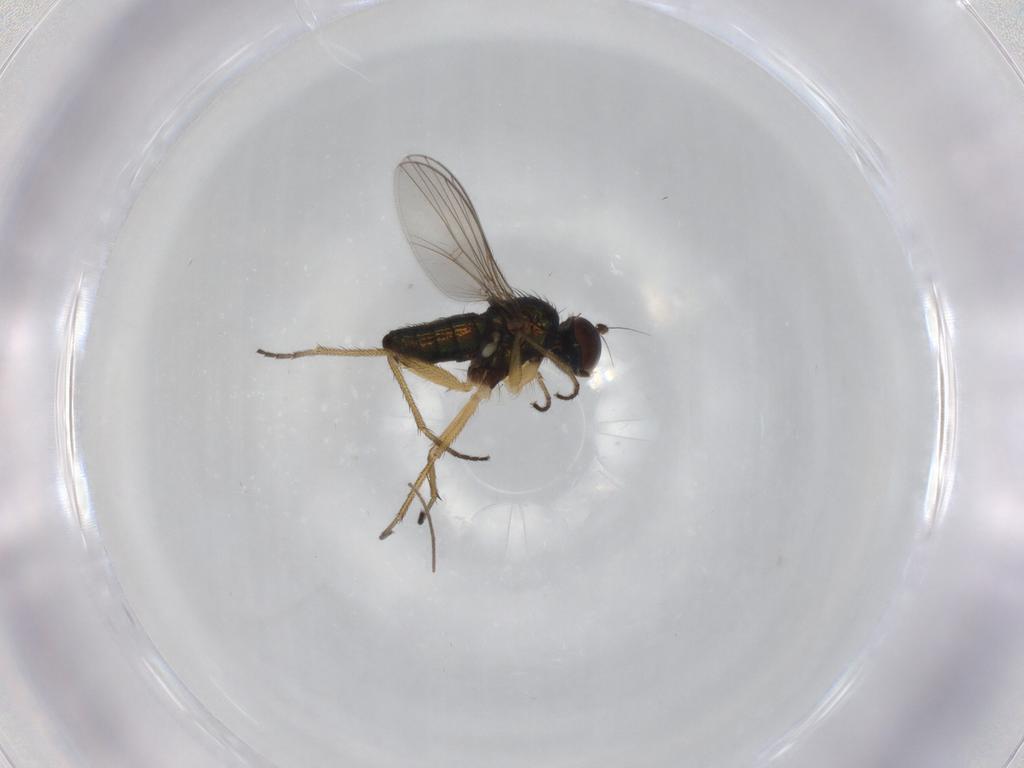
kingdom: Animalia
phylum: Arthropoda
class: Insecta
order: Diptera
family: Chironomidae
